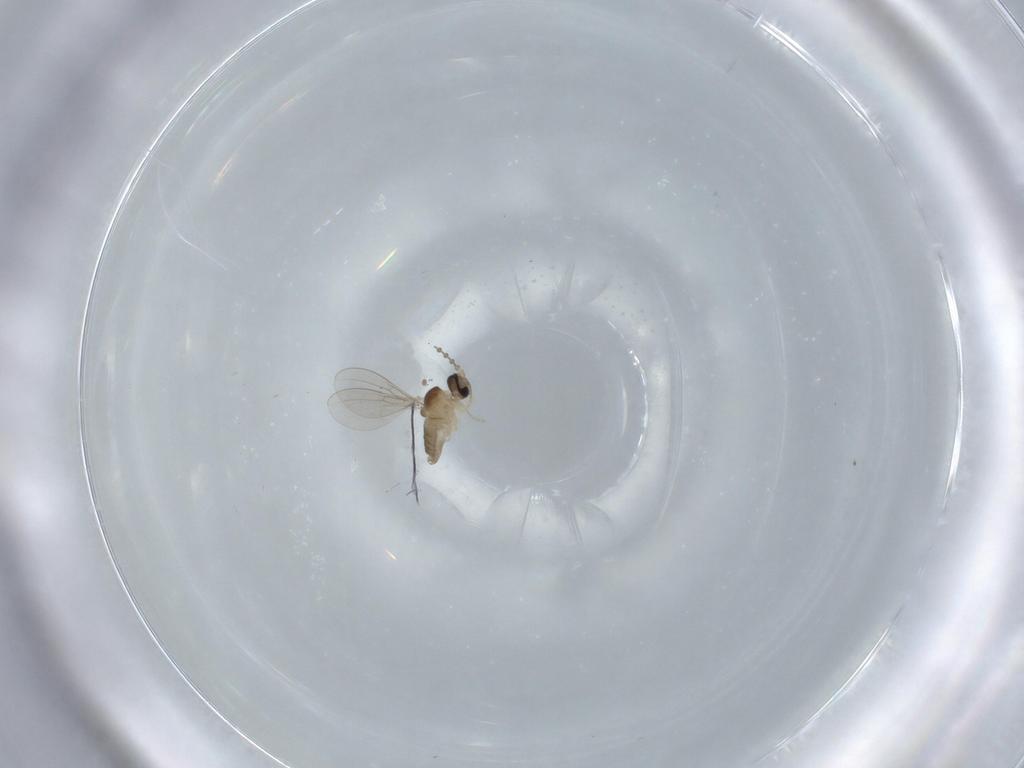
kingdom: Animalia
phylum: Arthropoda
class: Insecta
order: Diptera
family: Cecidomyiidae
